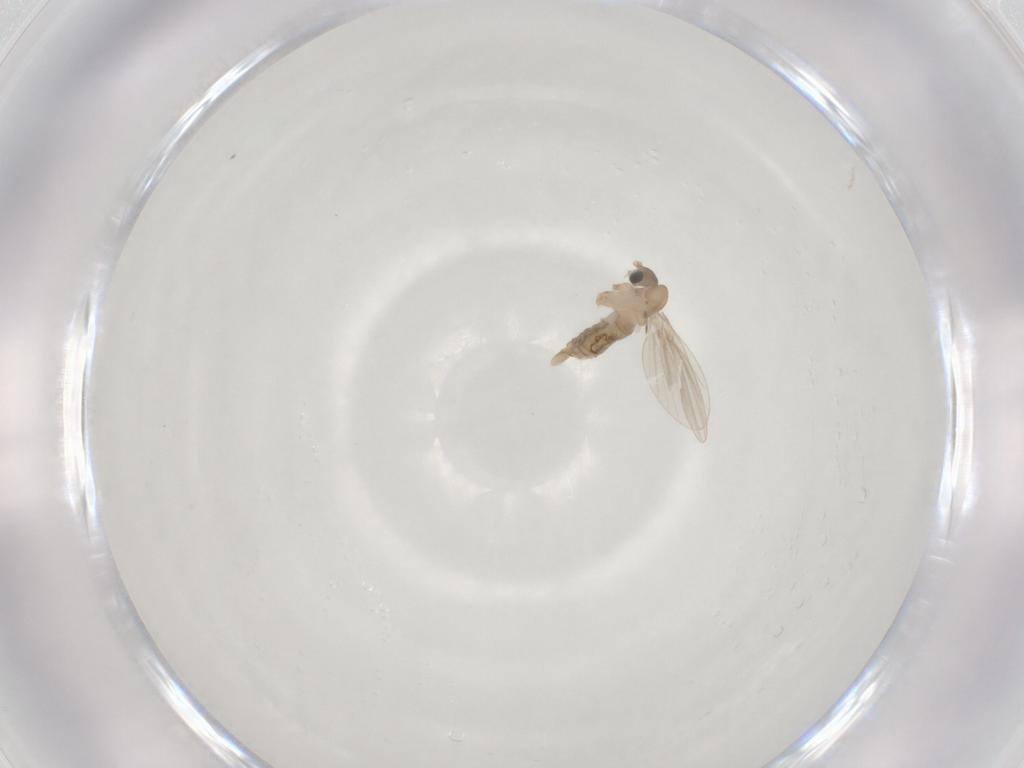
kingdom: Animalia
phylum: Arthropoda
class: Insecta
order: Diptera
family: Psychodidae
